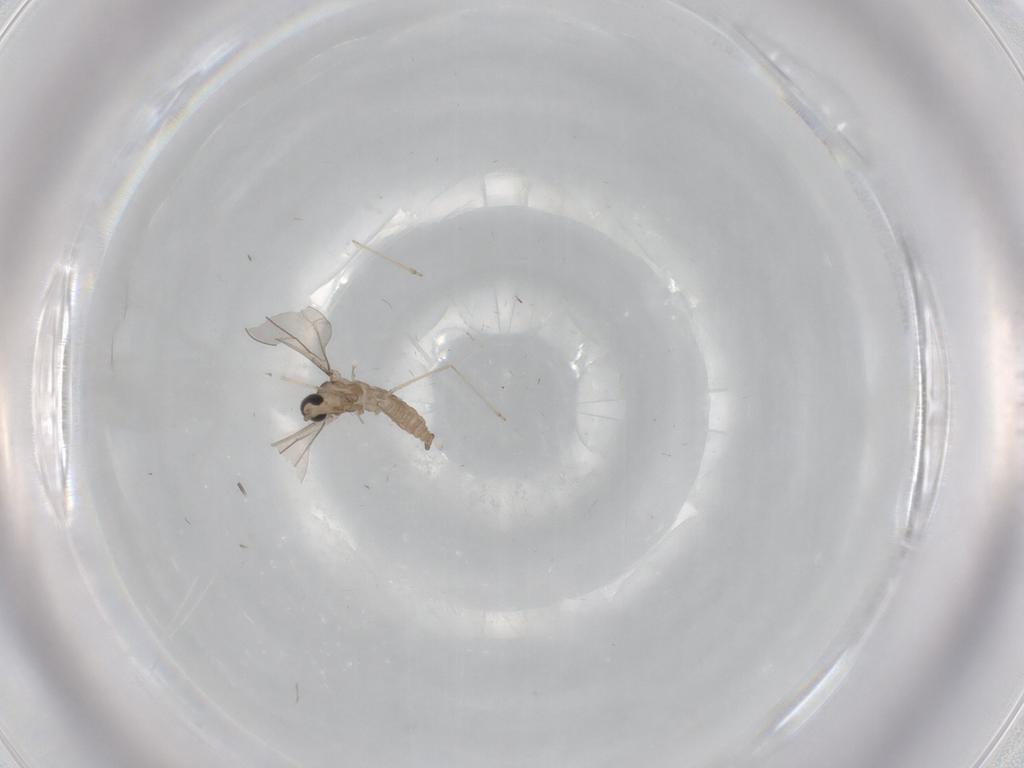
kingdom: Animalia
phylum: Arthropoda
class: Insecta
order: Diptera
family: Cecidomyiidae
